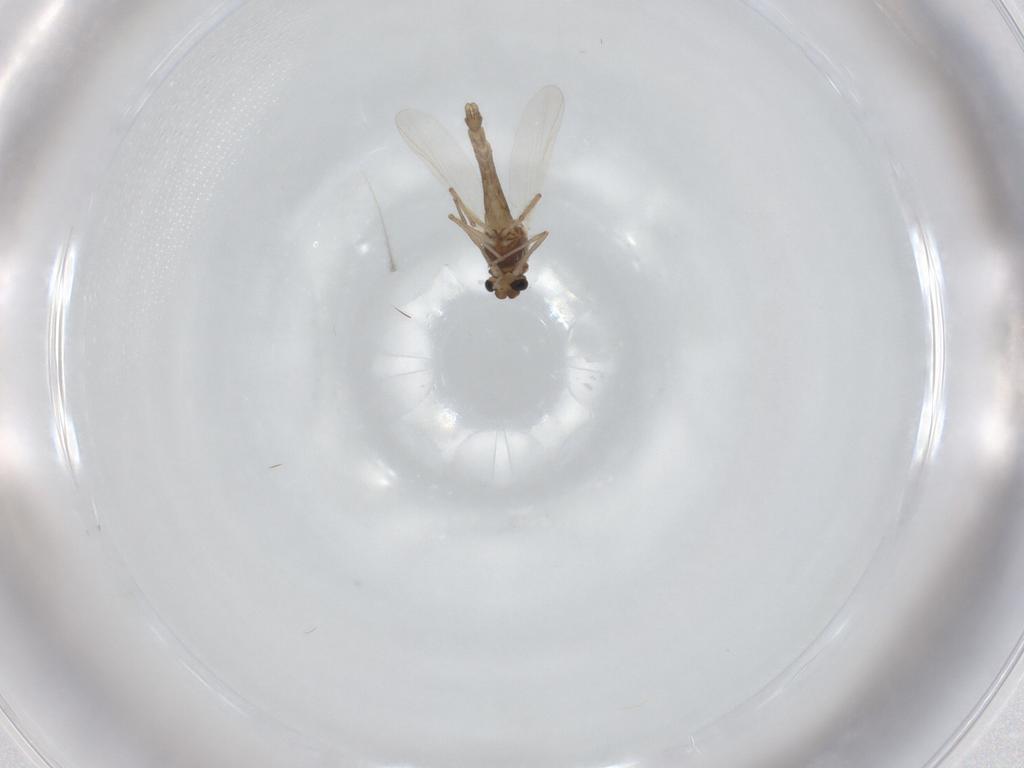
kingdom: Animalia
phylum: Arthropoda
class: Insecta
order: Diptera
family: Chironomidae
